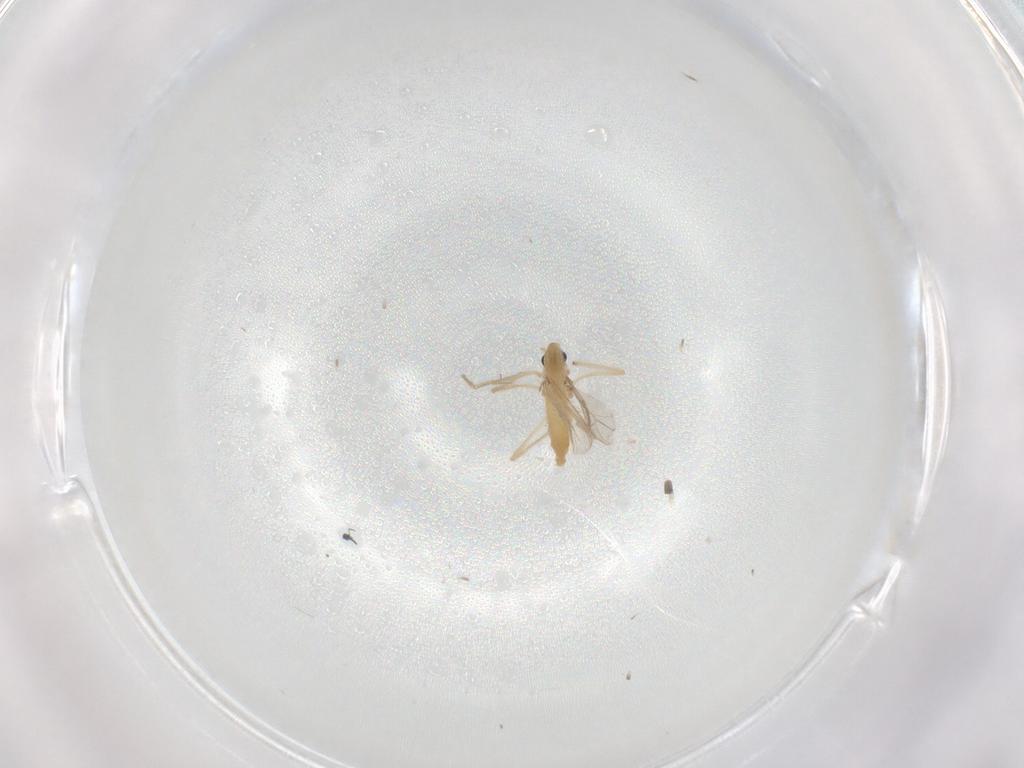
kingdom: Animalia
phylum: Arthropoda
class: Insecta
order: Diptera
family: Chironomidae
